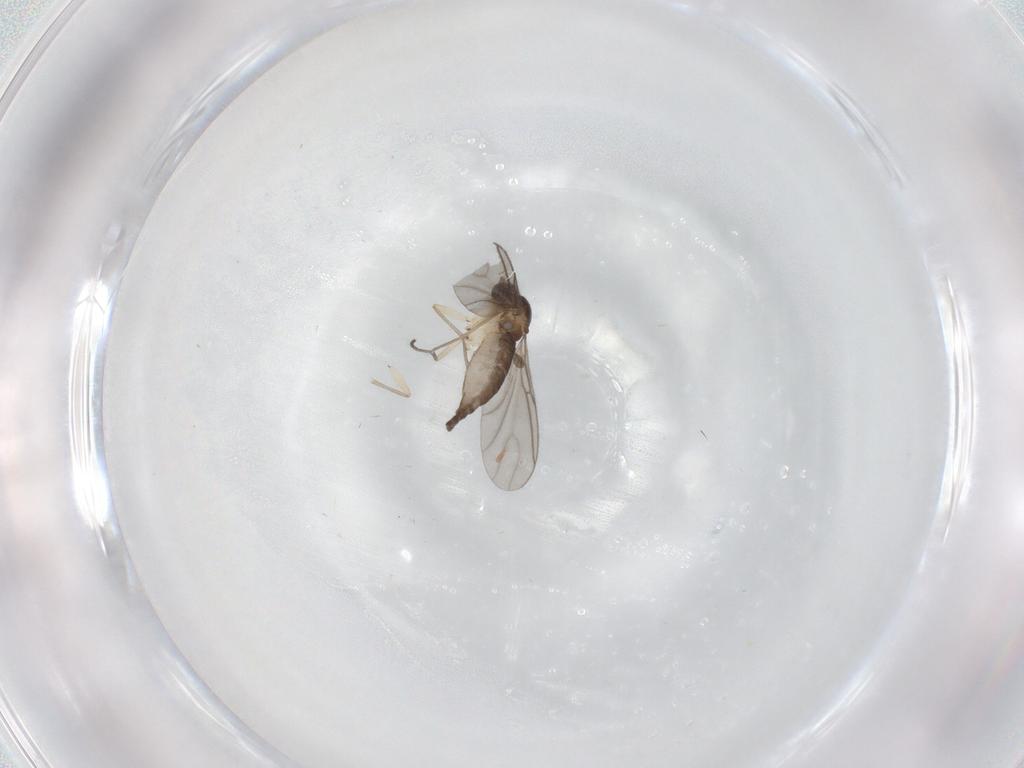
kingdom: Animalia
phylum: Arthropoda
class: Insecta
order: Diptera
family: Sciaridae
